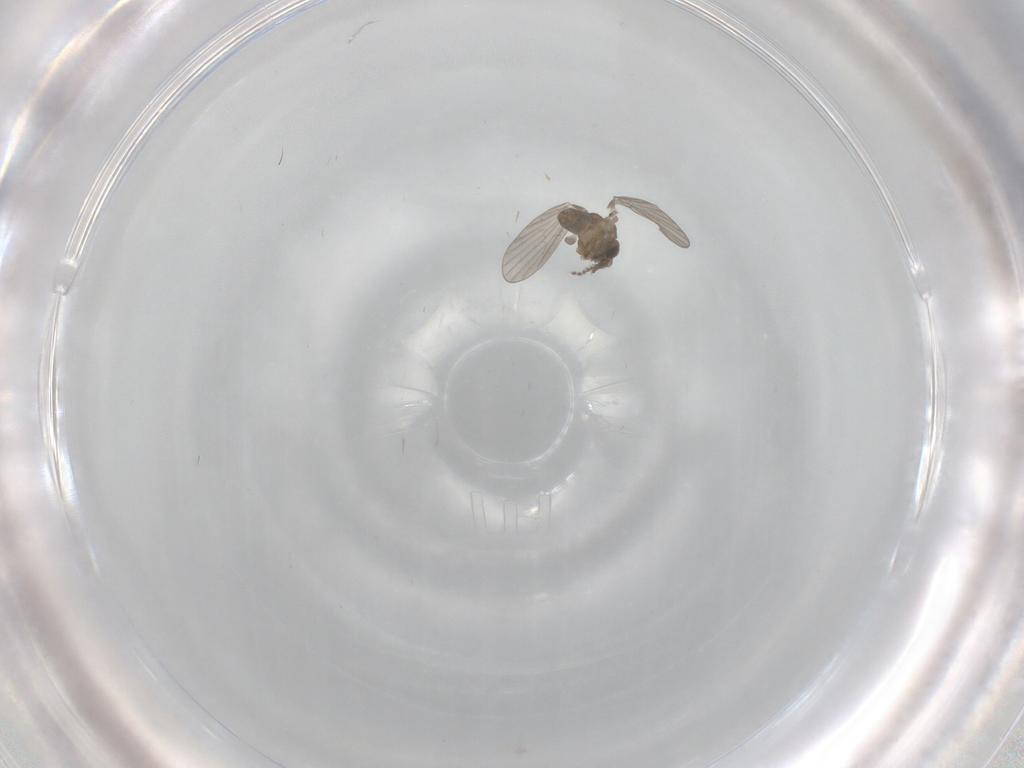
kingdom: Animalia
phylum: Arthropoda
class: Insecta
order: Diptera
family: Phoridae
